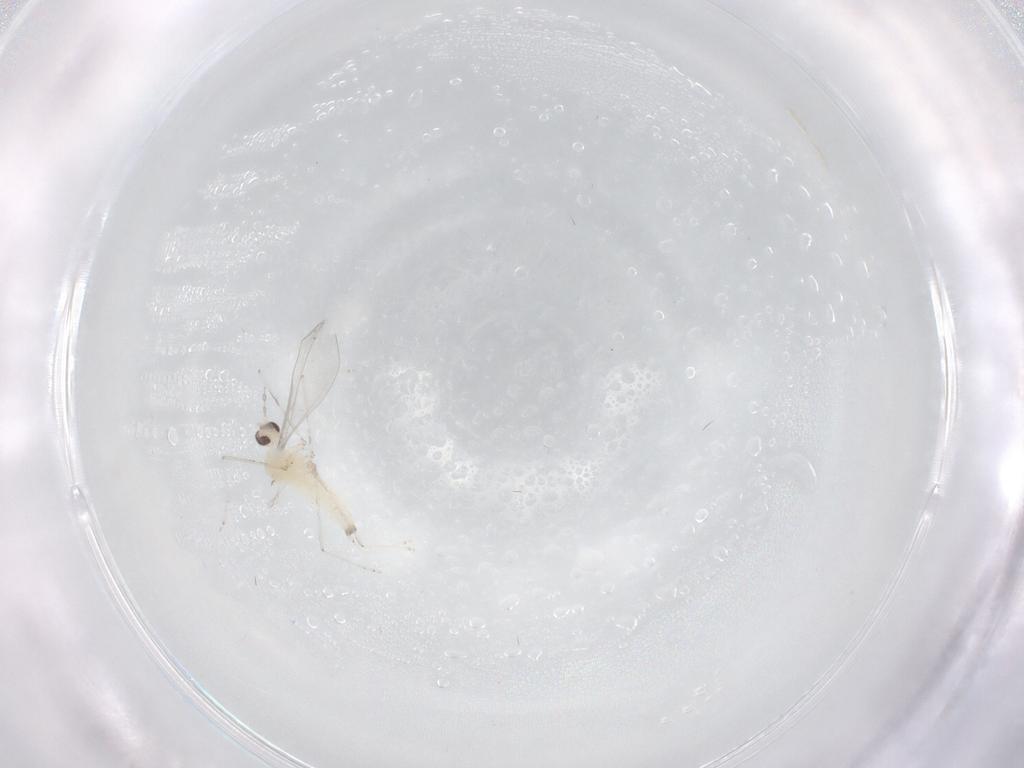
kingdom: Animalia
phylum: Arthropoda
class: Insecta
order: Diptera
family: Cecidomyiidae
